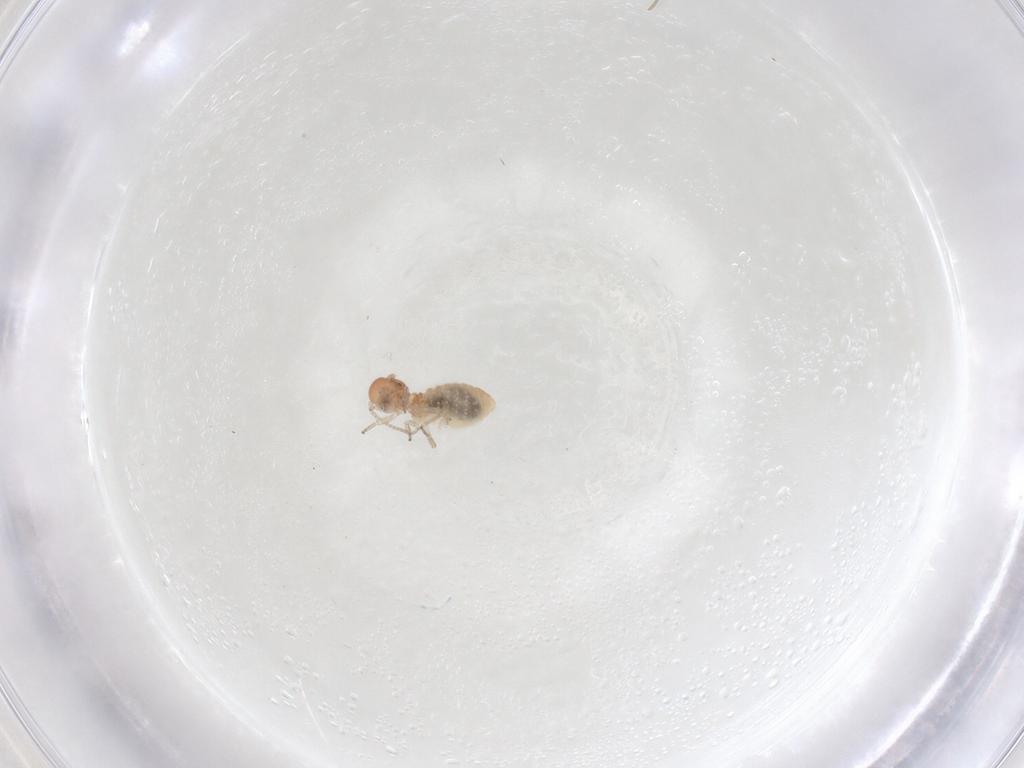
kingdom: Animalia
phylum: Arthropoda
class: Insecta
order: Psocodea
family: Caeciliusidae
